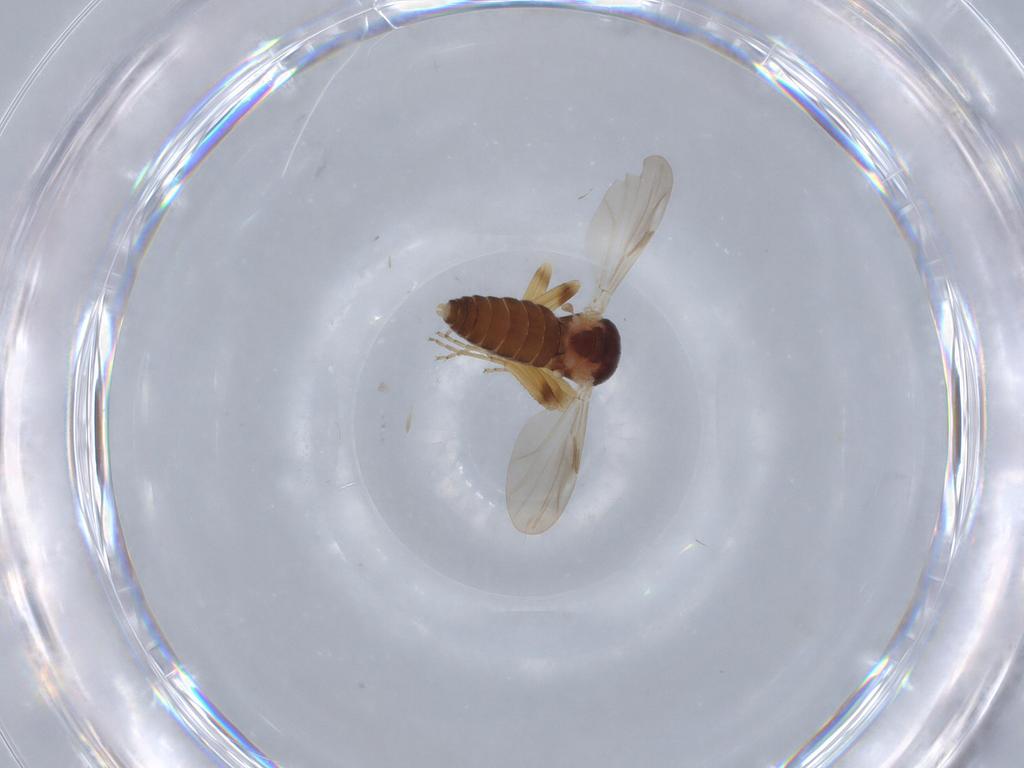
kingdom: Animalia
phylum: Arthropoda
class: Insecta
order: Diptera
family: Ceratopogonidae
